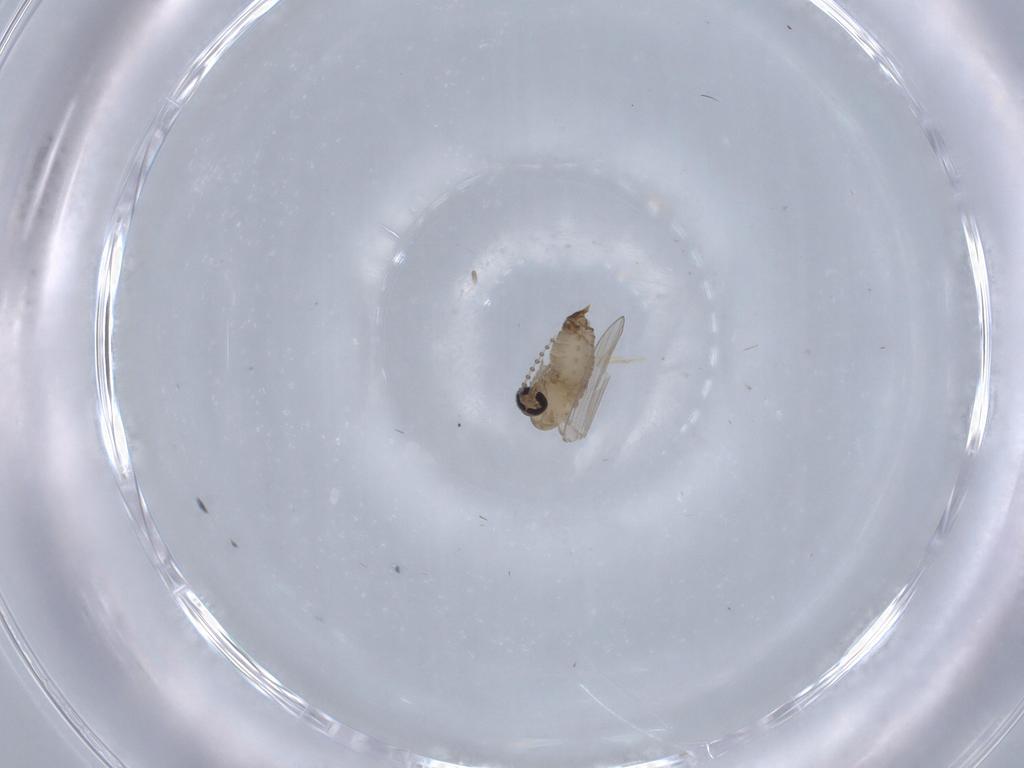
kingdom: Animalia
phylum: Arthropoda
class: Insecta
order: Diptera
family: Psychodidae
